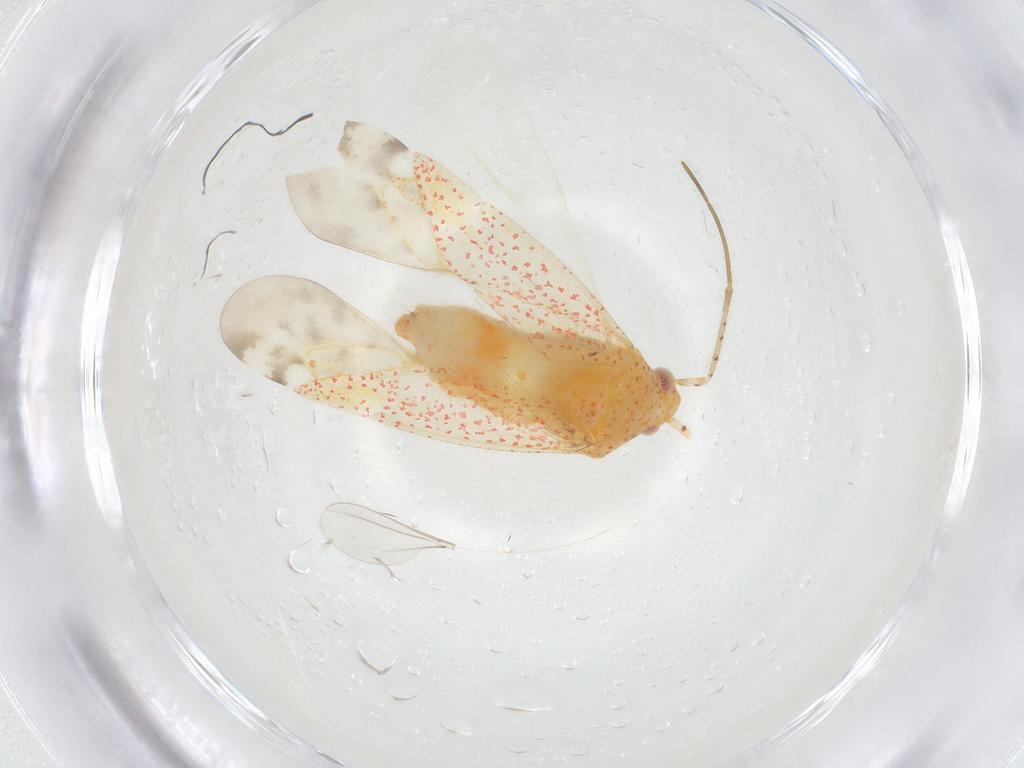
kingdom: Animalia
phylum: Arthropoda
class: Insecta
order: Hemiptera
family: Miridae
